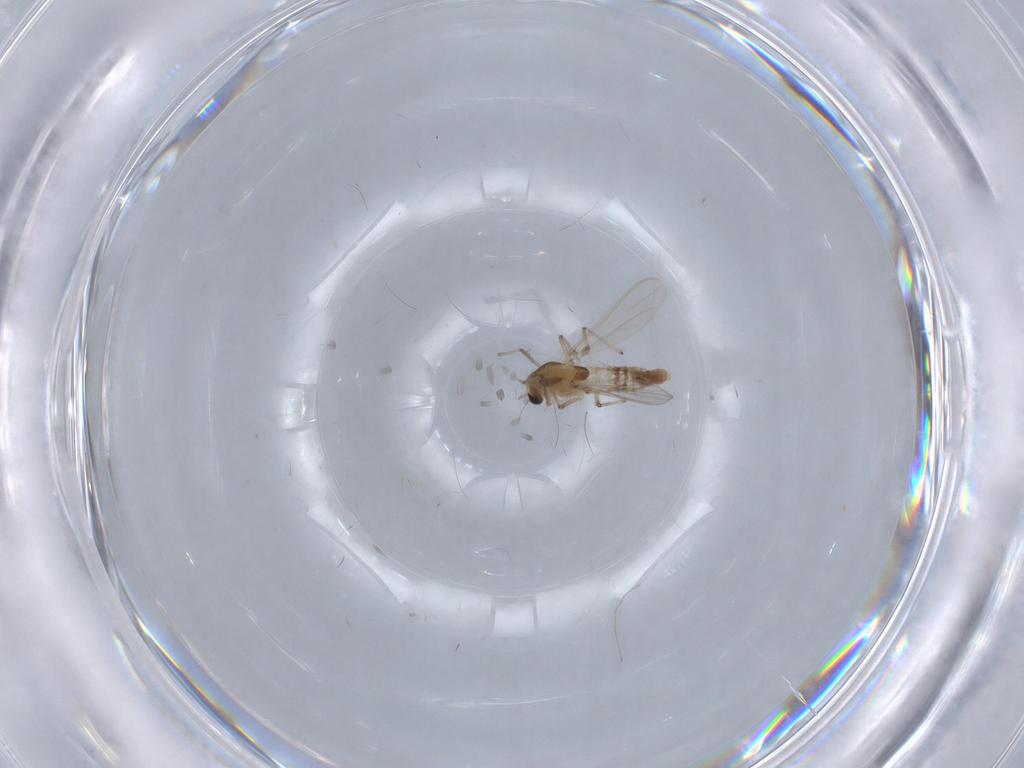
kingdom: Animalia
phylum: Arthropoda
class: Insecta
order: Diptera
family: Chironomidae
